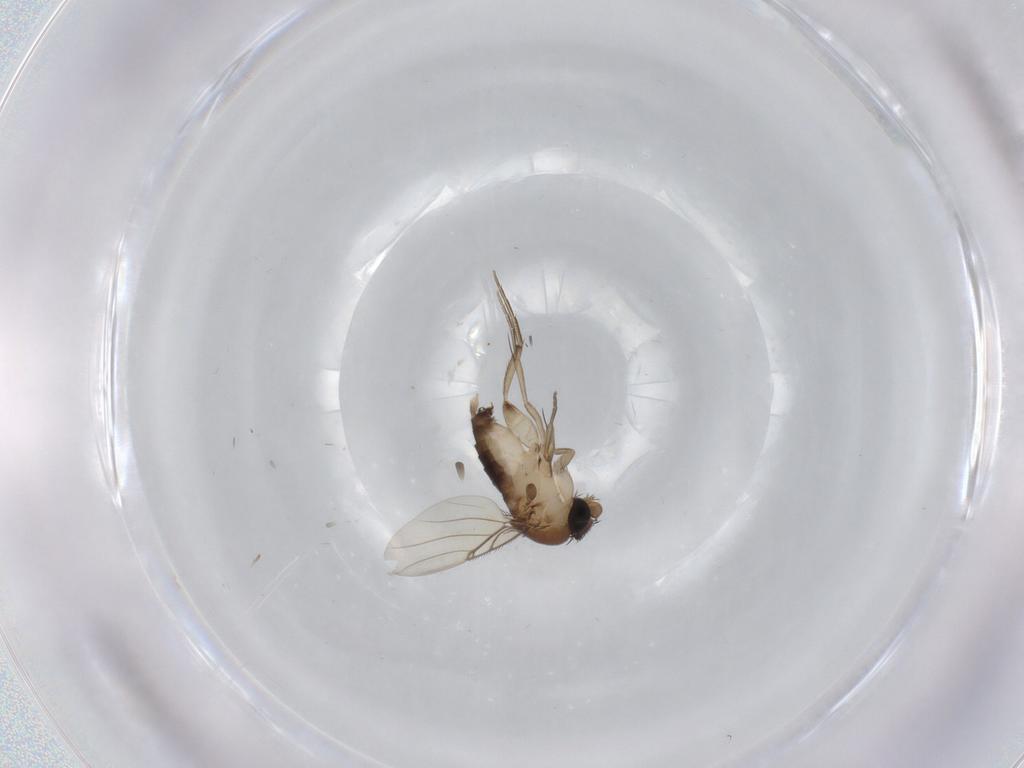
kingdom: Animalia
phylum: Arthropoda
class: Insecta
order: Diptera
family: Phoridae
